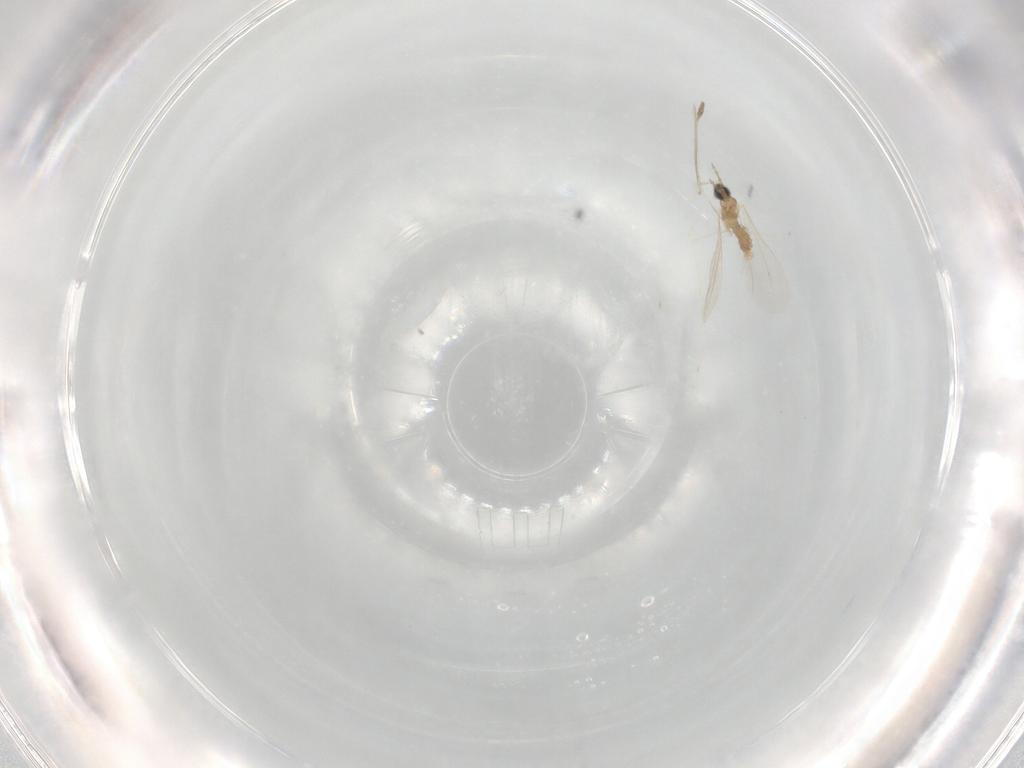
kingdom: Animalia
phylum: Arthropoda
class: Insecta
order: Diptera
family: Cecidomyiidae
